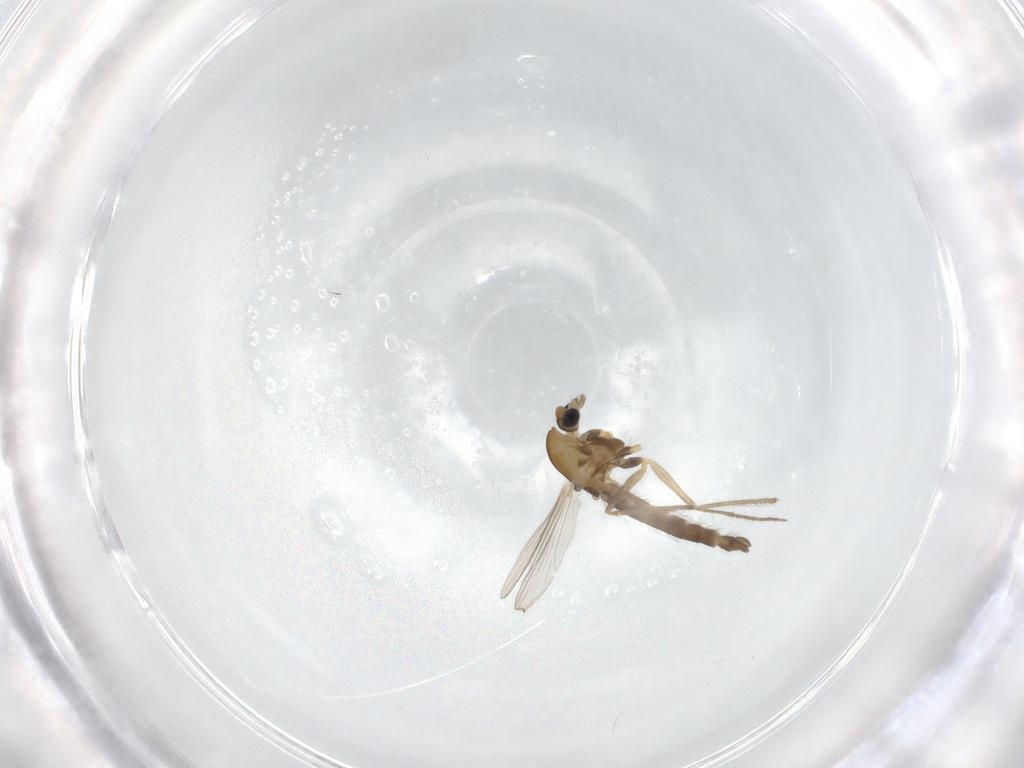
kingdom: Animalia
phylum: Arthropoda
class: Insecta
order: Diptera
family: Chironomidae
